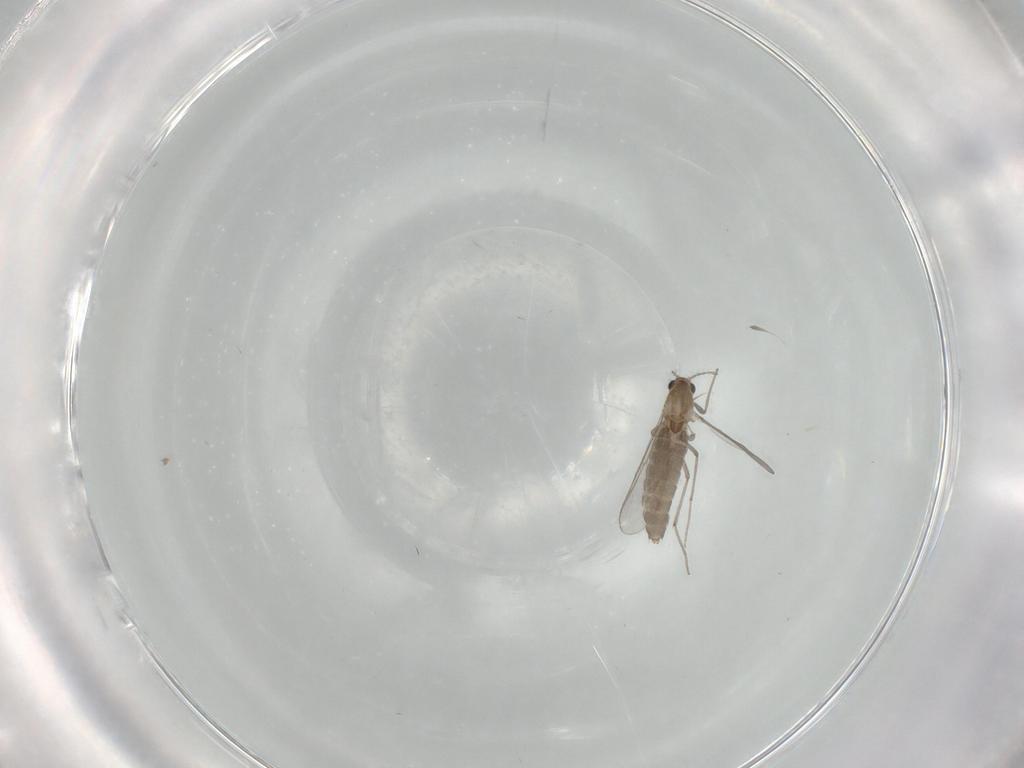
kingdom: Animalia
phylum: Arthropoda
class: Insecta
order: Diptera
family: Chironomidae
